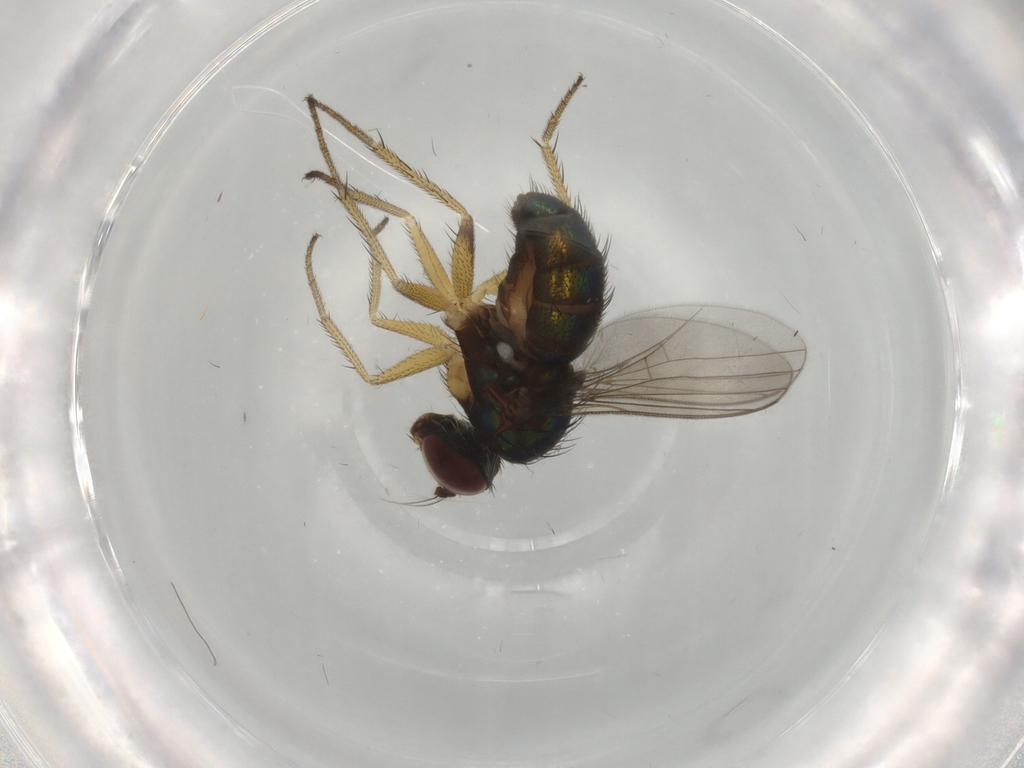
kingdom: Animalia
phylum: Arthropoda
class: Insecta
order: Diptera
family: Dolichopodidae
